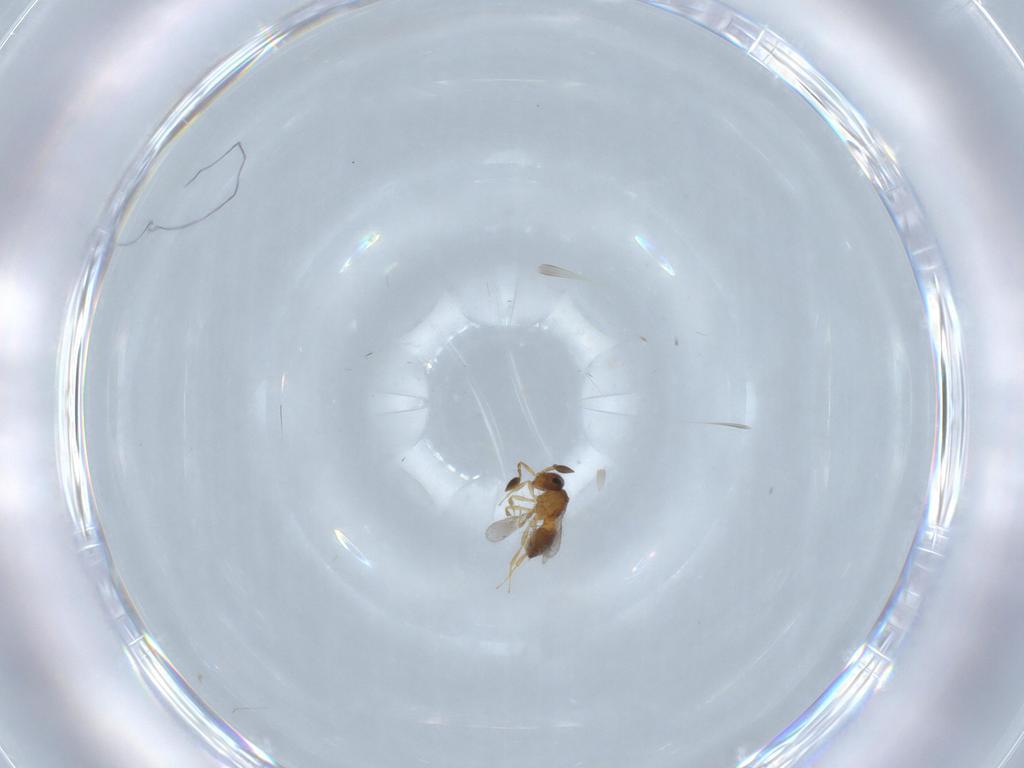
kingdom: Animalia
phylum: Arthropoda
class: Insecta
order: Hymenoptera
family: Scelionidae
